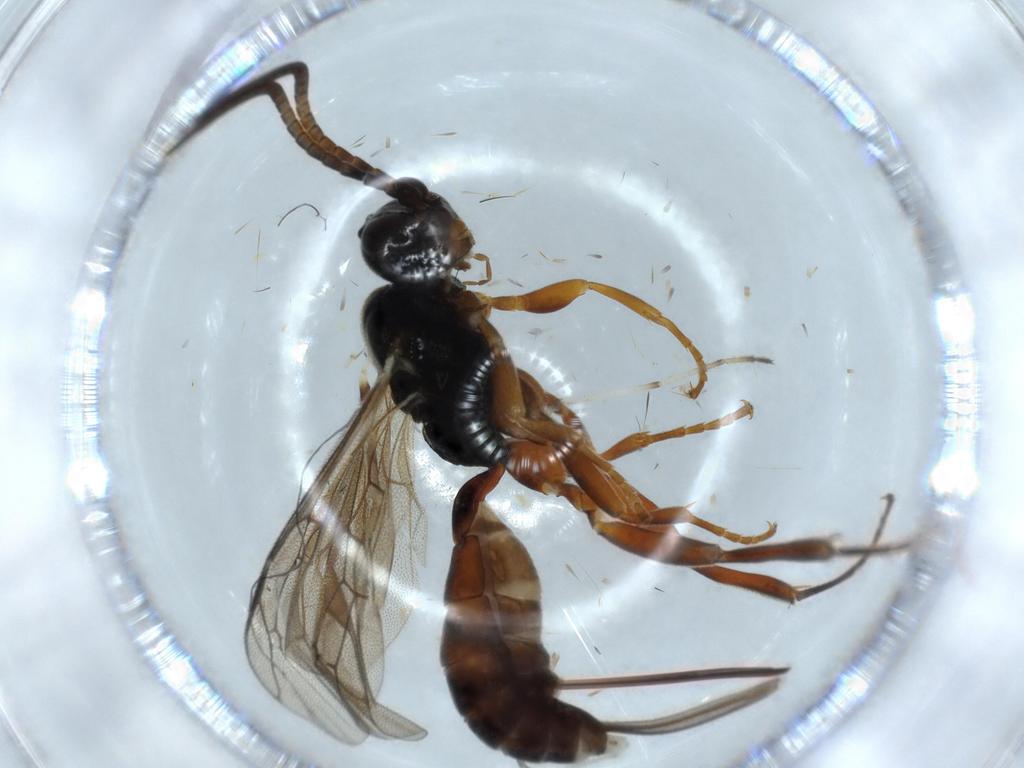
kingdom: Animalia
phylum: Arthropoda
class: Insecta
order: Hymenoptera
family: Ichneumonidae
